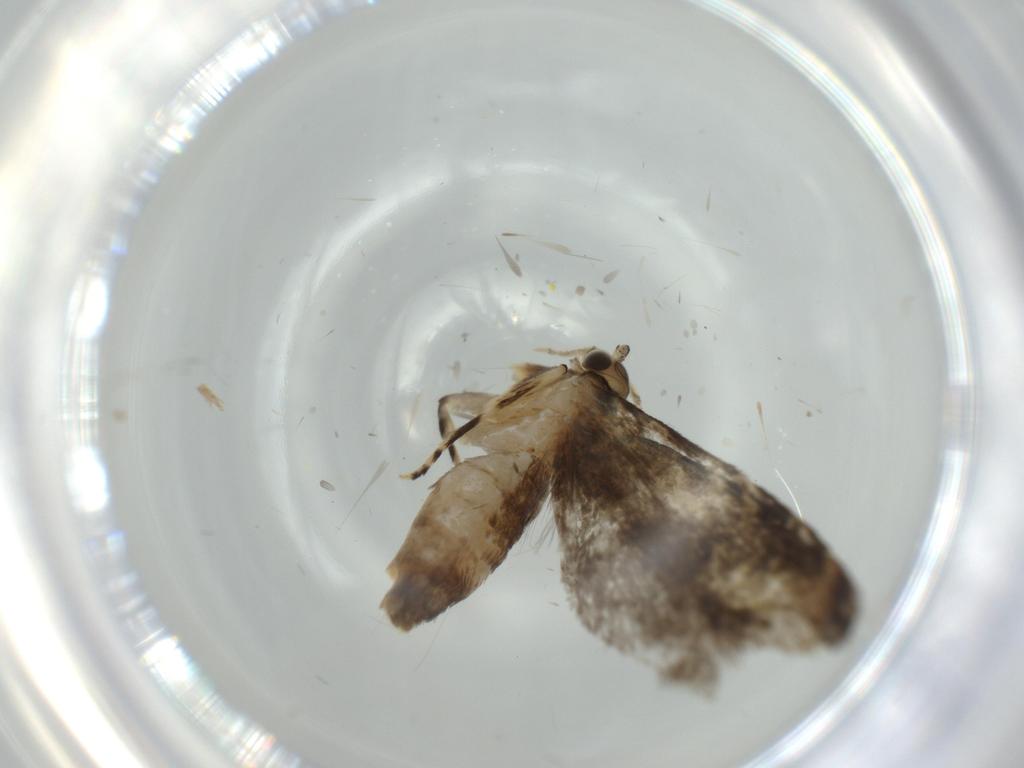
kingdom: Animalia
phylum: Arthropoda
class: Insecta
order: Lepidoptera
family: Tineidae
